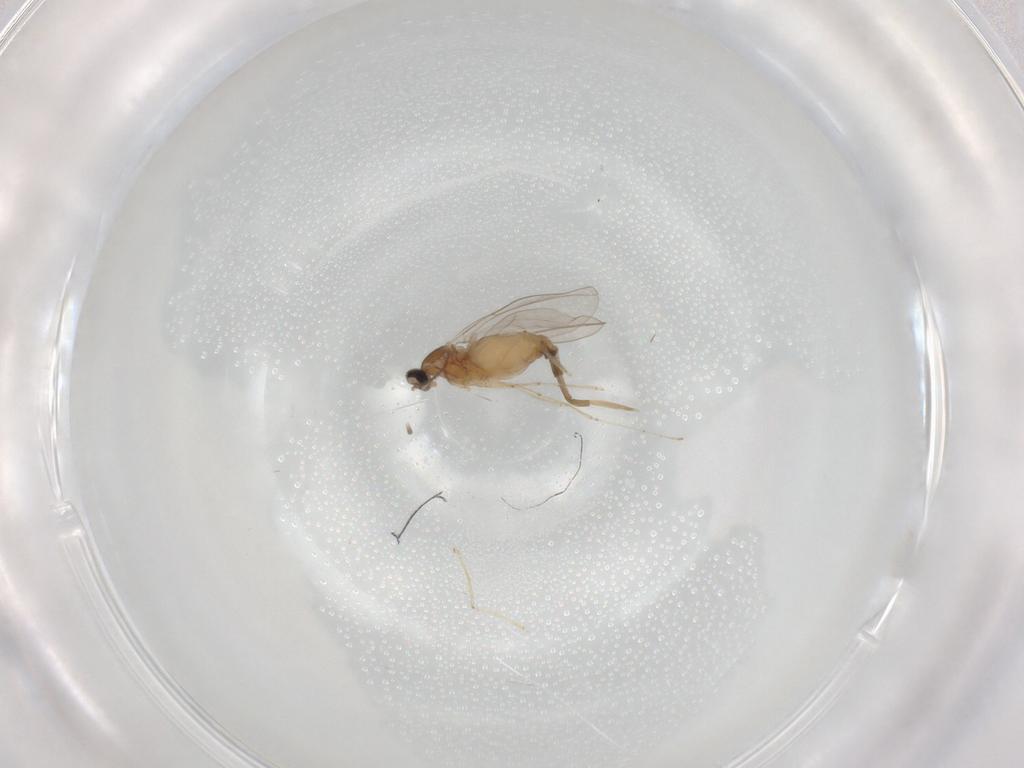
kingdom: Animalia
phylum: Arthropoda
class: Insecta
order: Diptera
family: Cecidomyiidae
